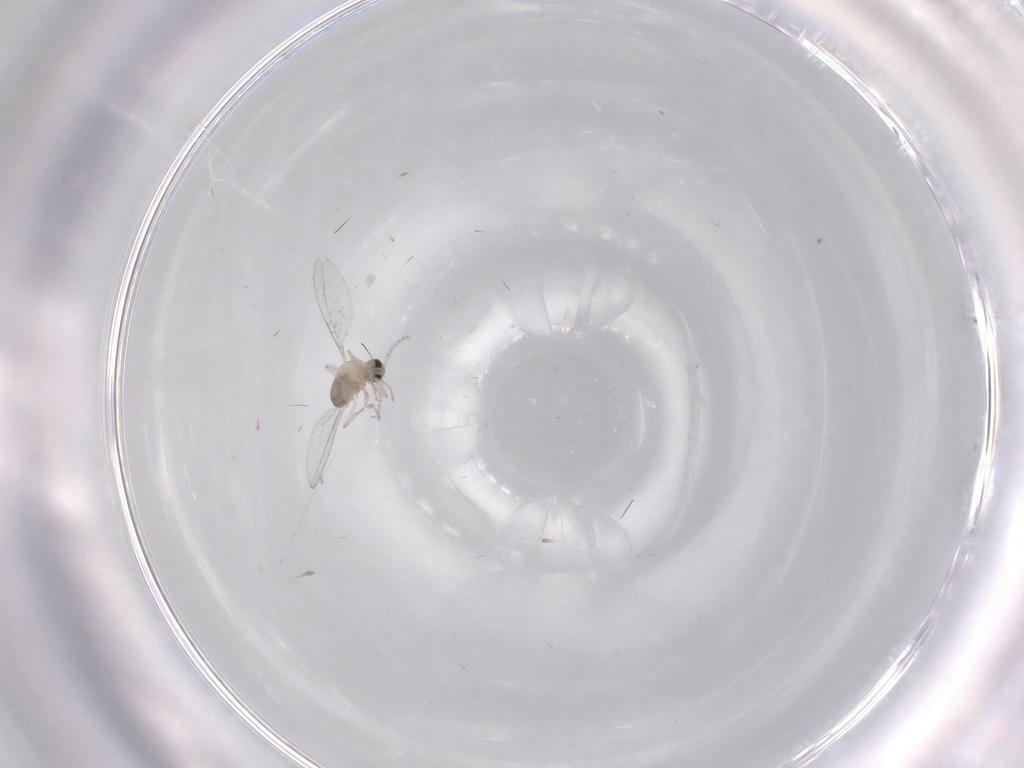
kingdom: Animalia
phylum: Arthropoda
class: Insecta
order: Diptera
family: Cecidomyiidae
